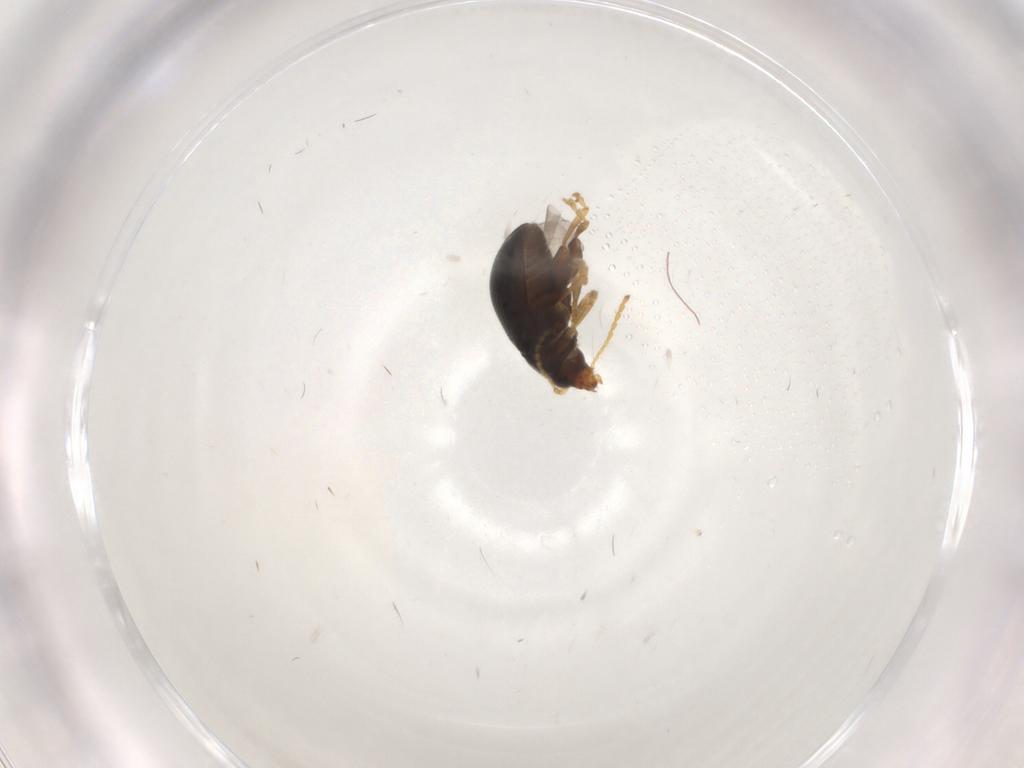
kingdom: Animalia
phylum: Arthropoda
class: Insecta
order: Coleoptera
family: Chrysomelidae
